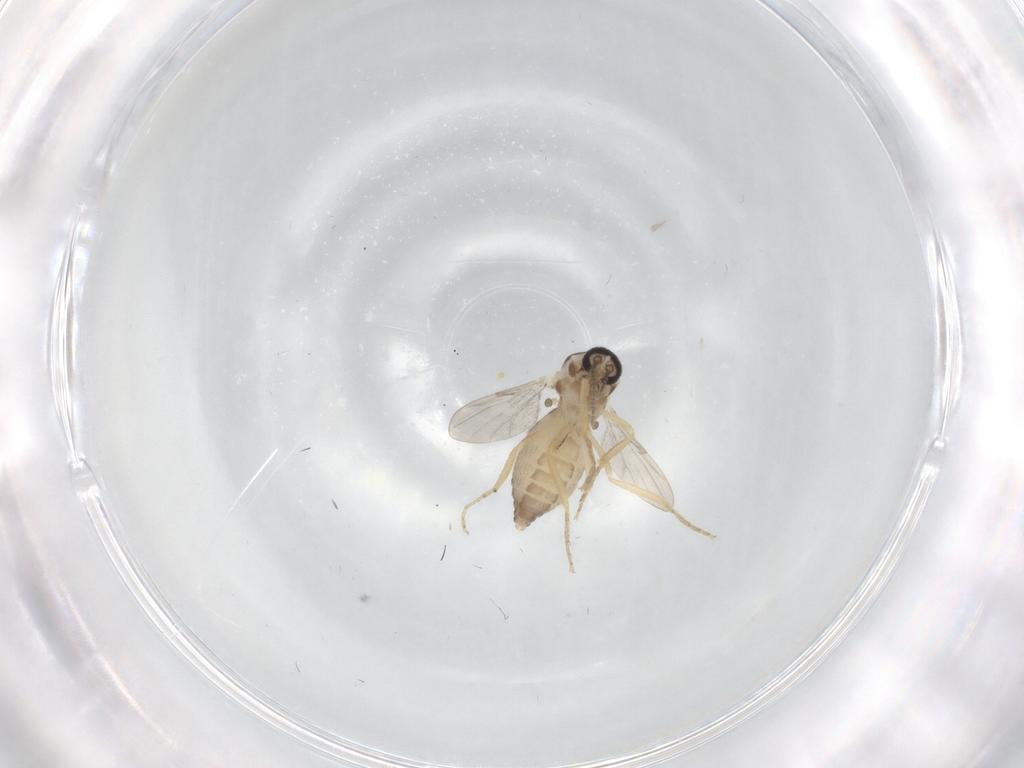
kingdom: Animalia
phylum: Arthropoda
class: Insecta
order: Diptera
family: Ceratopogonidae
